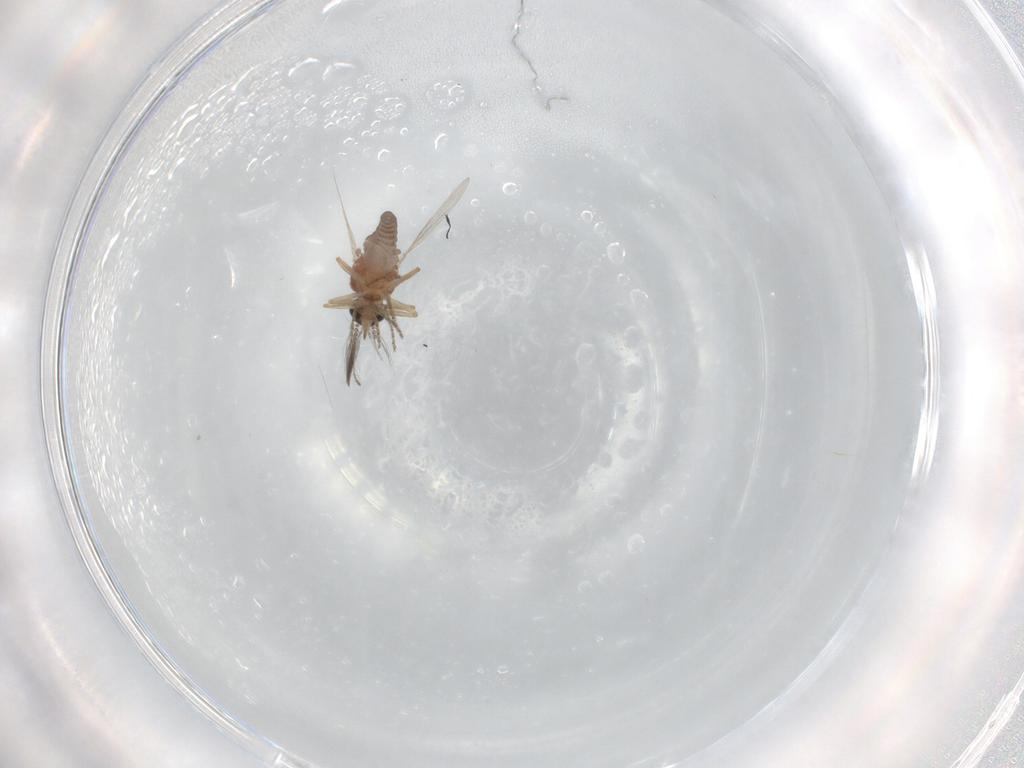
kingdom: Animalia
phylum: Arthropoda
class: Insecta
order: Diptera
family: Ceratopogonidae
